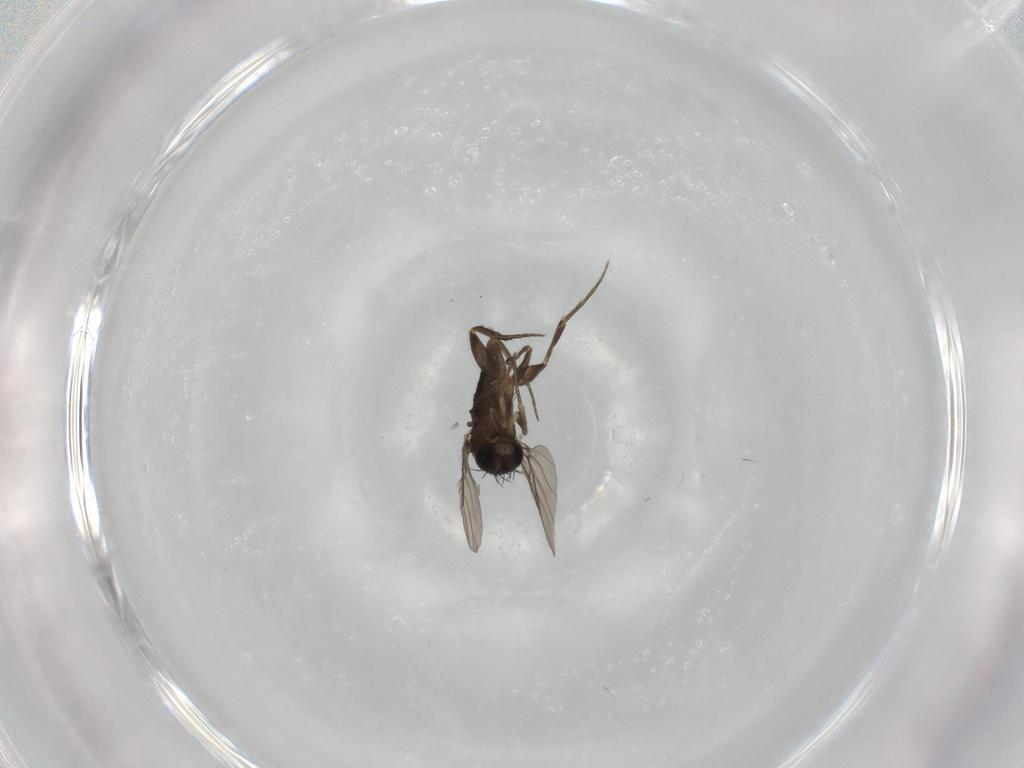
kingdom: Animalia
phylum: Arthropoda
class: Insecta
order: Diptera
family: Phoridae
